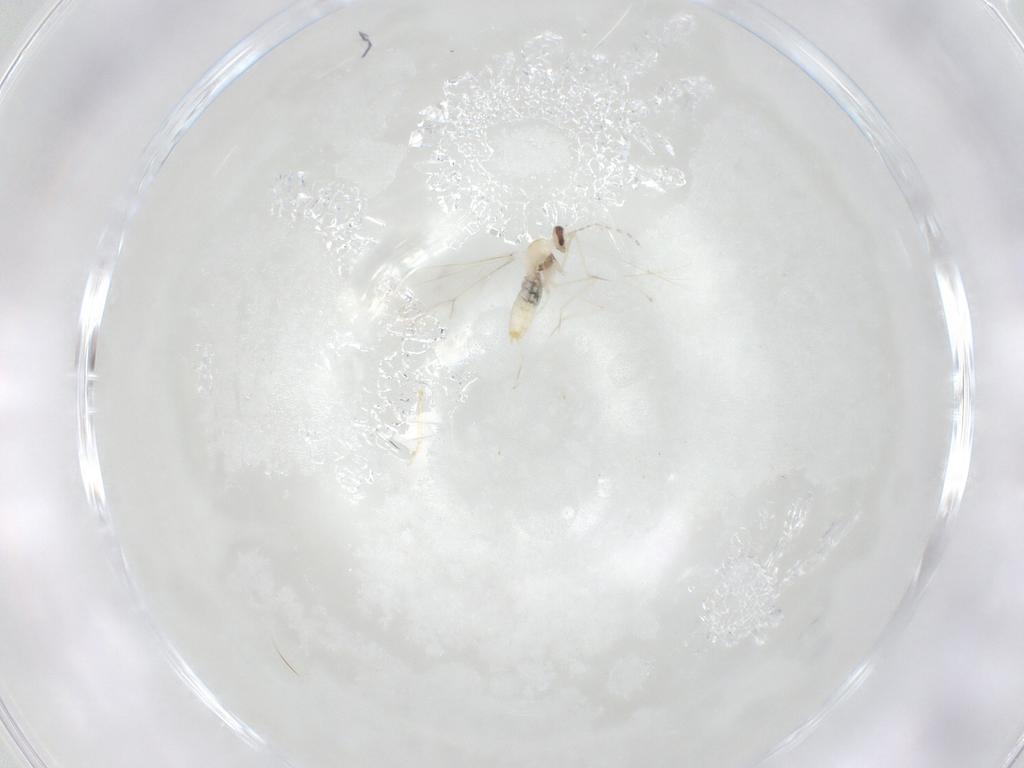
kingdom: Animalia
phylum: Arthropoda
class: Insecta
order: Diptera
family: Cecidomyiidae
